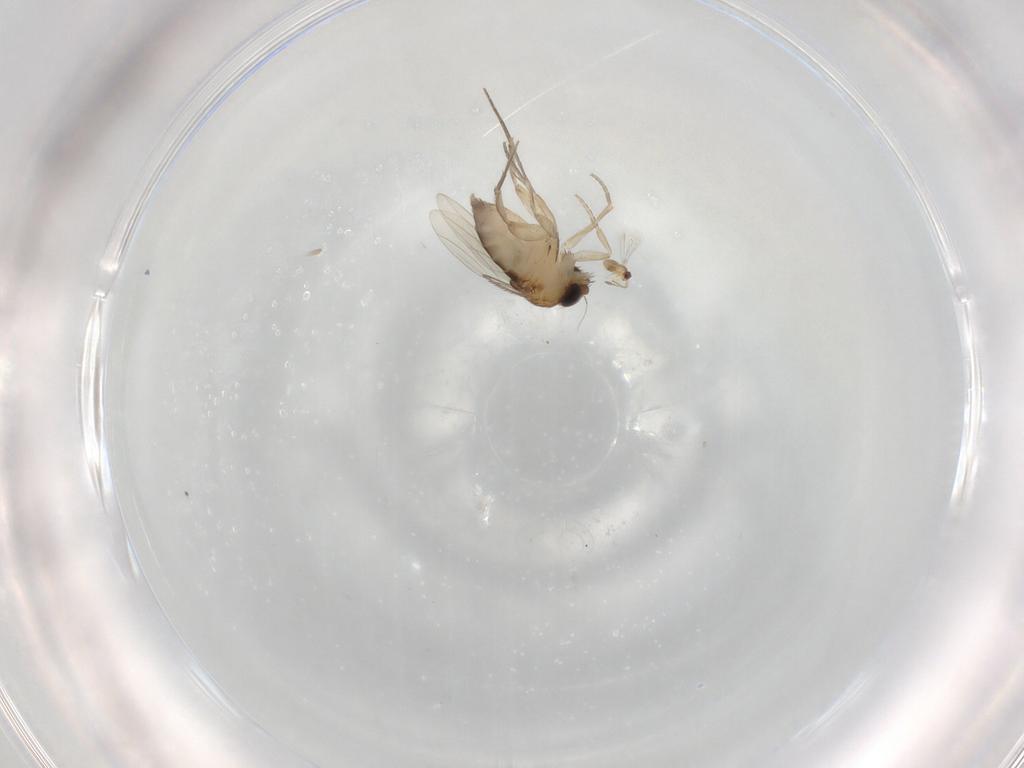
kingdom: Animalia
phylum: Arthropoda
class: Insecta
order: Diptera
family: Phoridae
